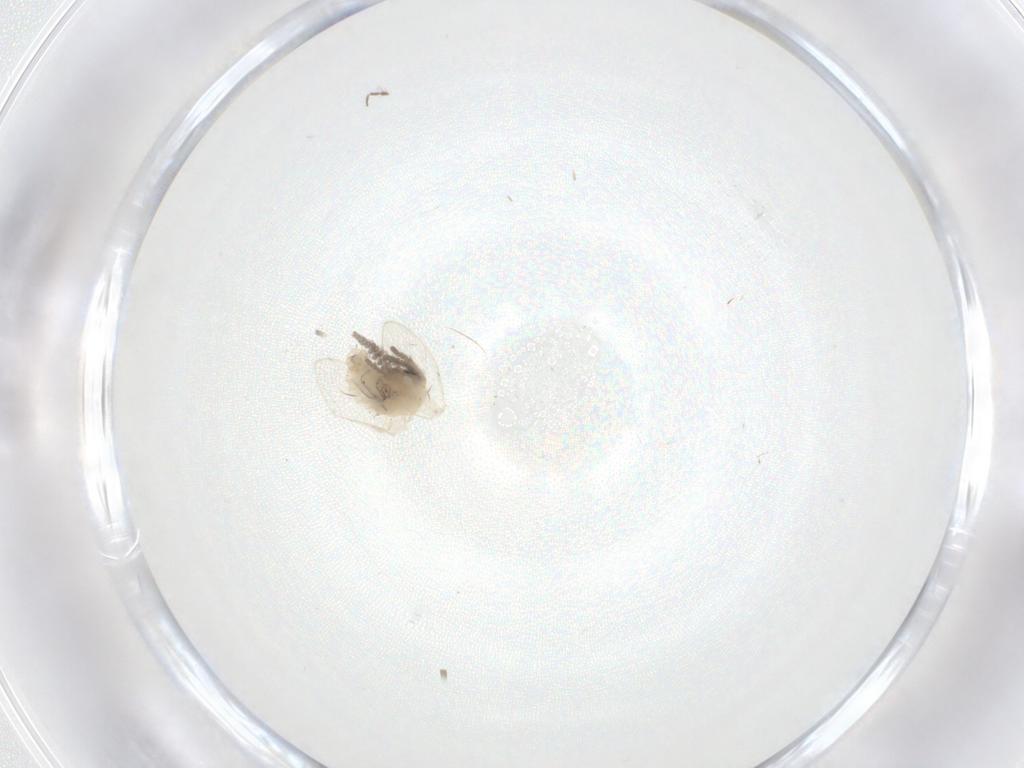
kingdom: Animalia
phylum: Arthropoda
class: Insecta
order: Diptera
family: Psychodidae
